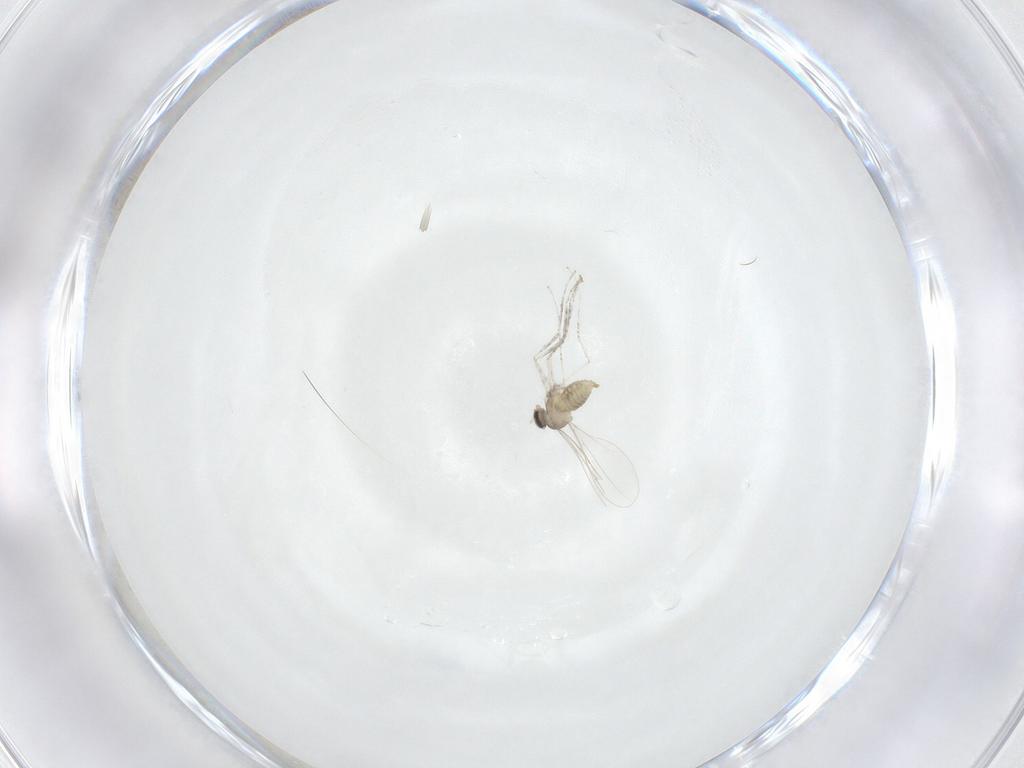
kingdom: Animalia
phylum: Arthropoda
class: Insecta
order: Diptera
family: Cecidomyiidae
